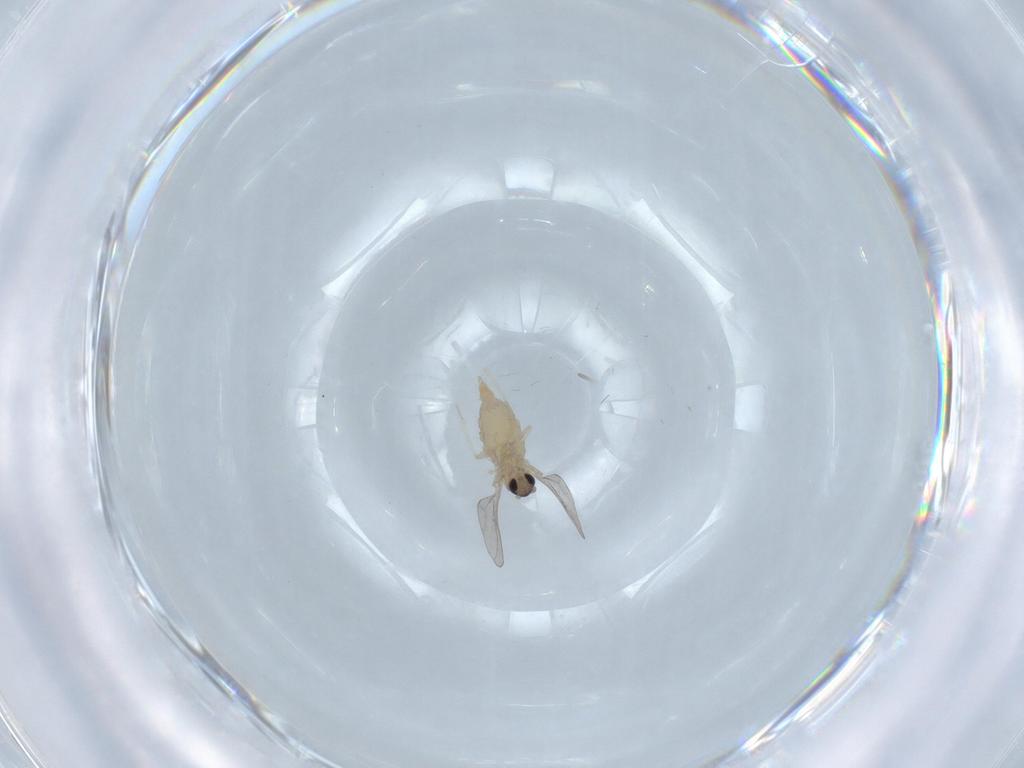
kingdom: Animalia
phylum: Arthropoda
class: Insecta
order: Diptera
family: Cecidomyiidae
